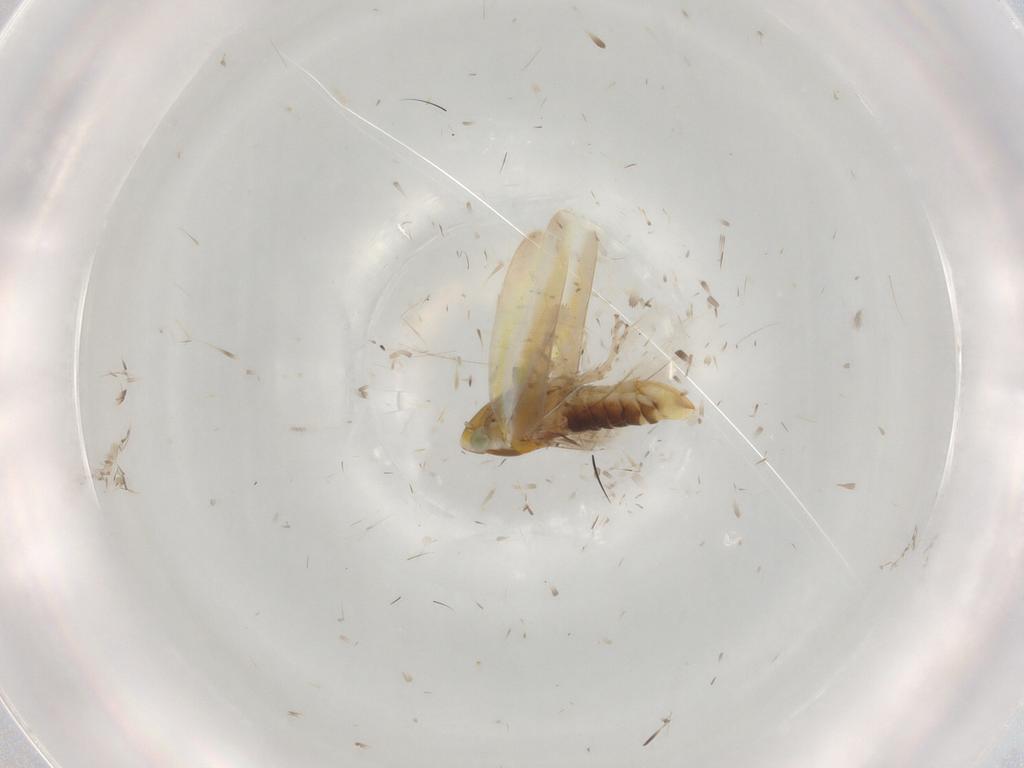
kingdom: Animalia
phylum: Arthropoda
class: Insecta
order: Hemiptera
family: Cicadellidae
